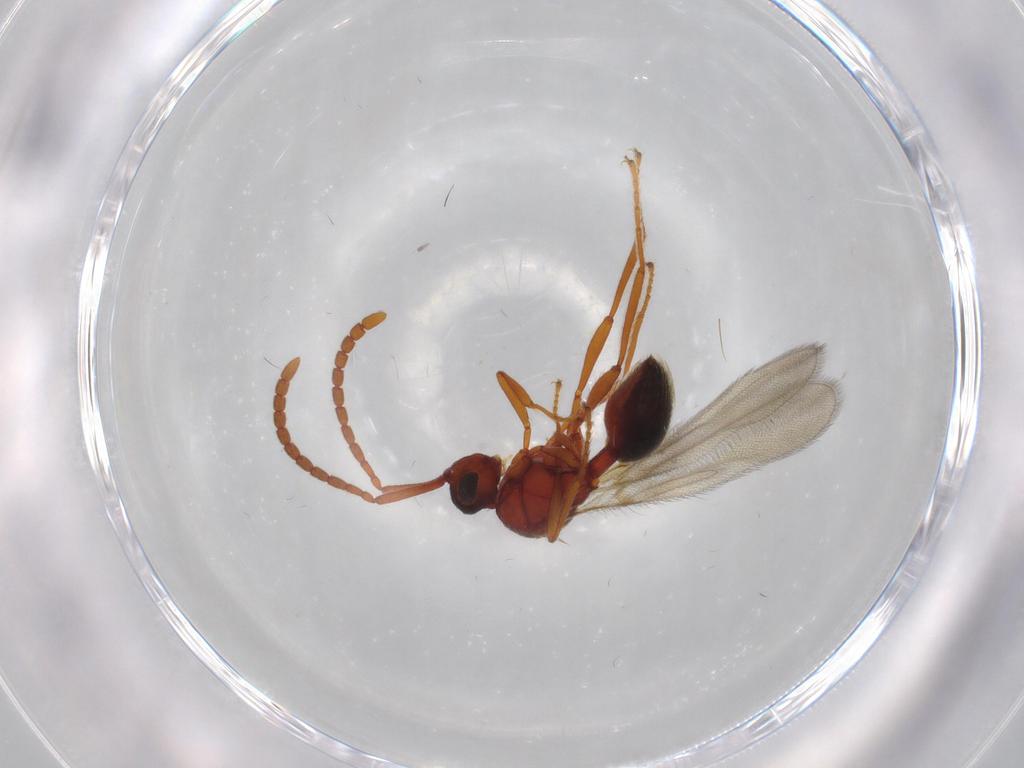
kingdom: Animalia
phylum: Arthropoda
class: Insecta
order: Hymenoptera
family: Diapriidae
